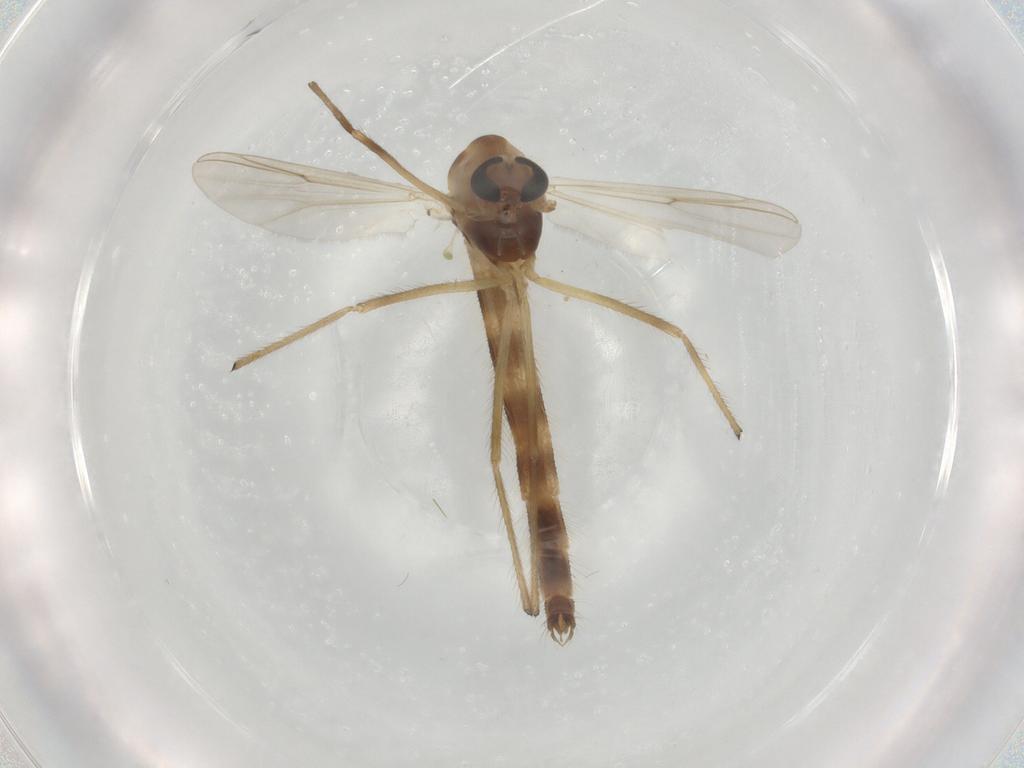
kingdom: Animalia
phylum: Arthropoda
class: Insecta
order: Diptera
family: Chironomidae
